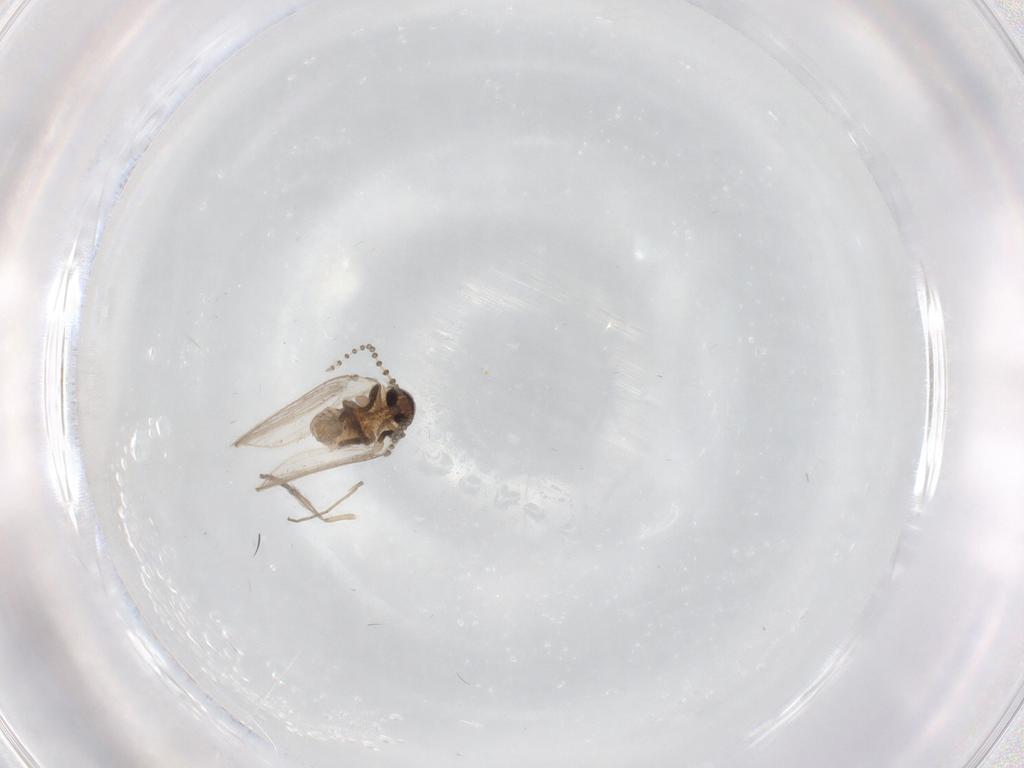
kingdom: Animalia
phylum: Arthropoda
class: Insecta
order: Diptera
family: Psychodidae
